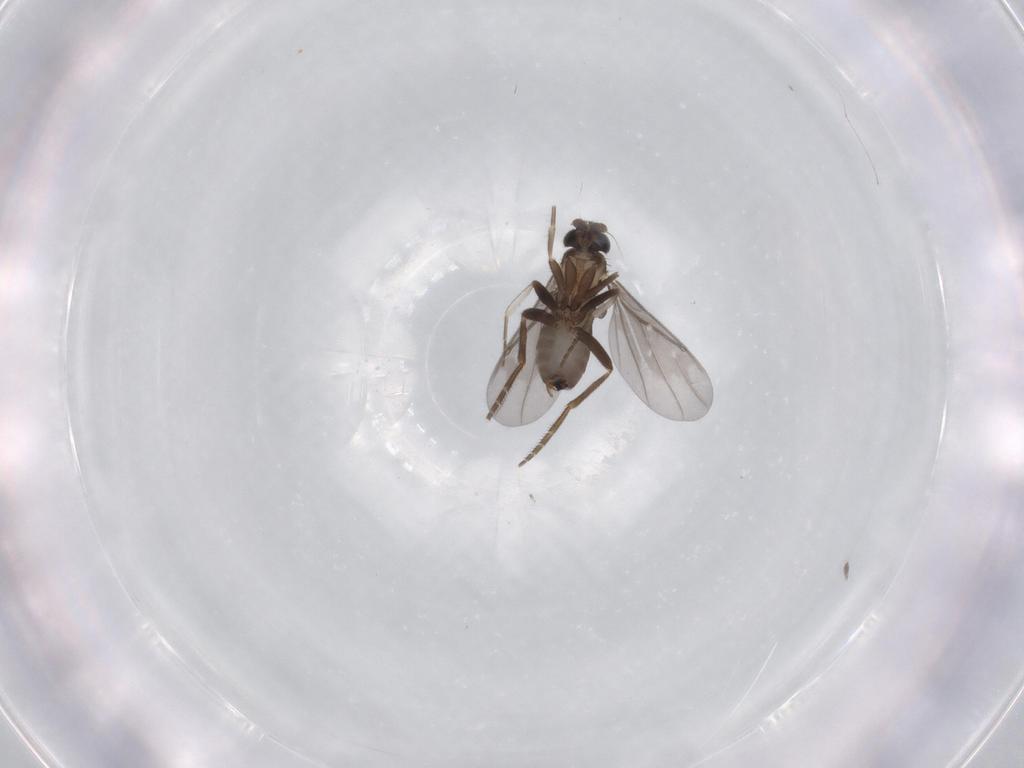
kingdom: Animalia
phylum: Arthropoda
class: Insecta
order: Diptera
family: Phoridae
